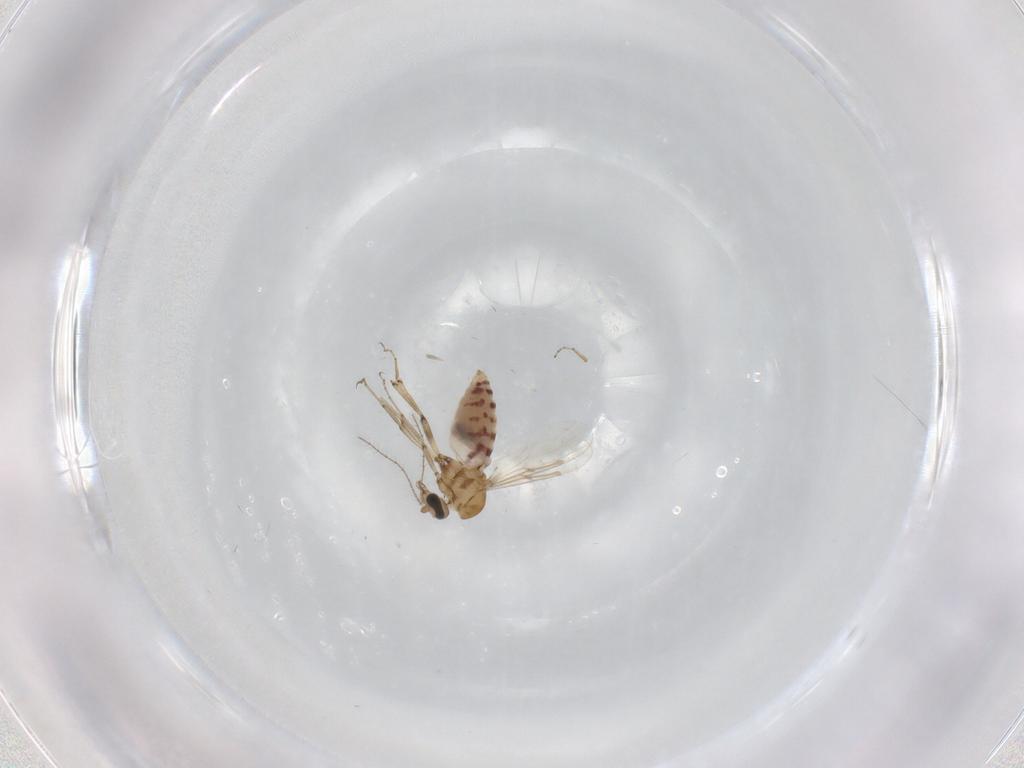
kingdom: Animalia
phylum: Arthropoda
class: Insecta
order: Diptera
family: Ceratopogonidae
